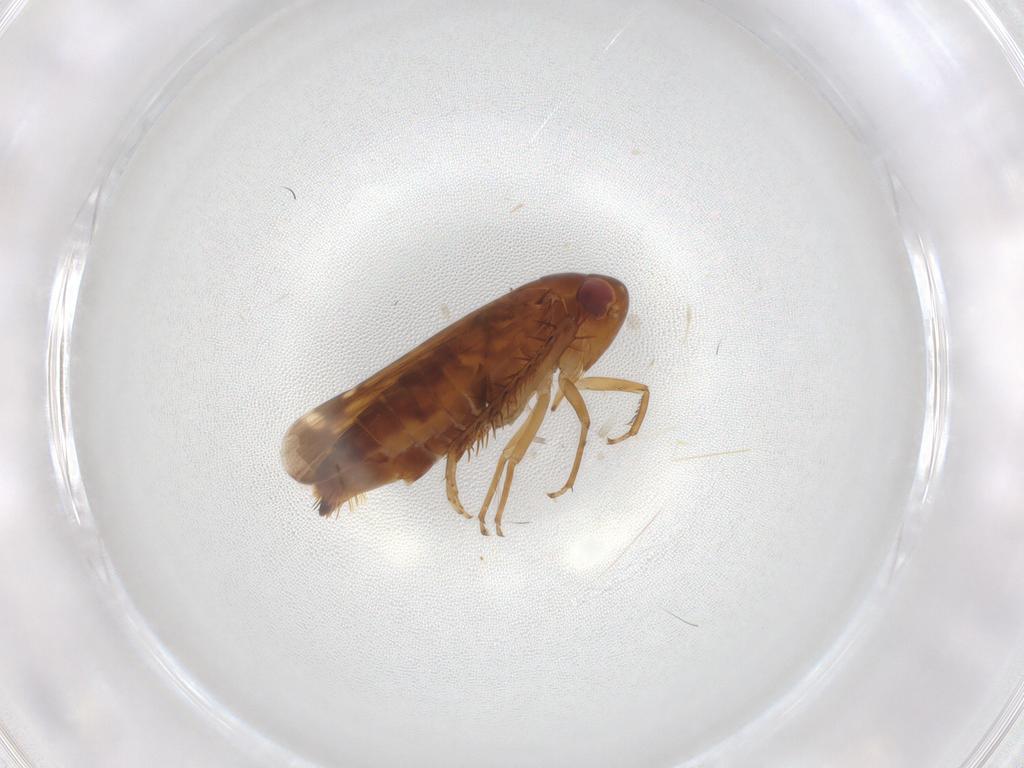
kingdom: Animalia
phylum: Arthropoda
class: Insecta
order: Hemiptera
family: Cicadellidae
